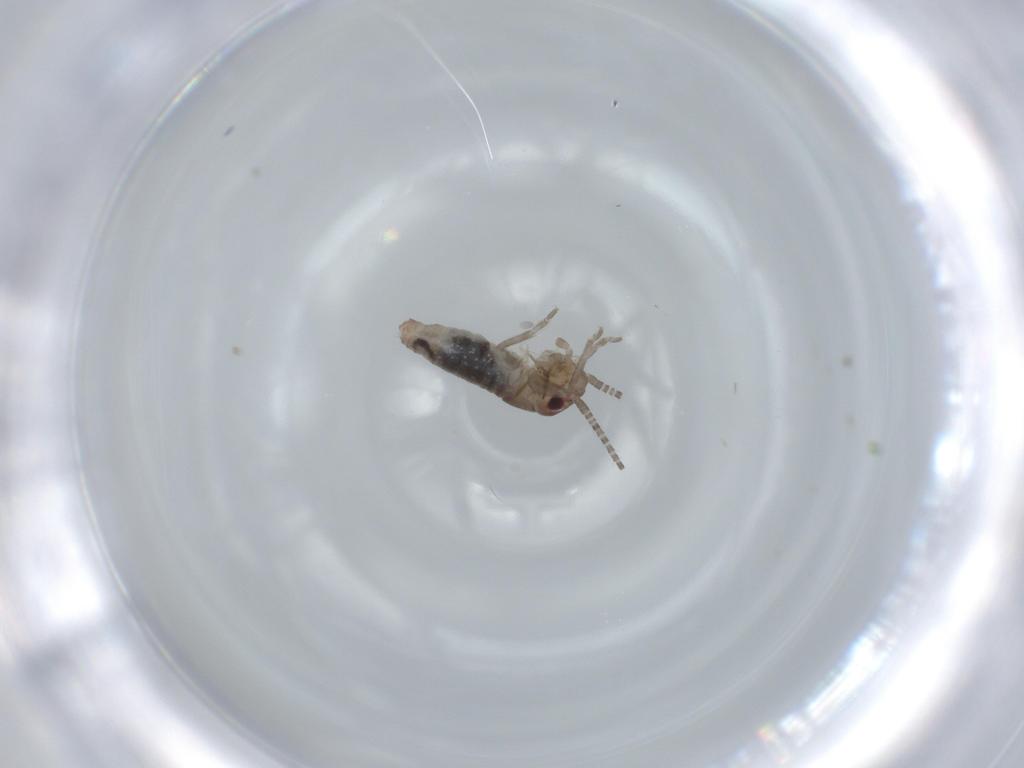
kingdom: Animalia
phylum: Arthropoda
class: Insecta
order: Orthoptera
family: Gryllidae
